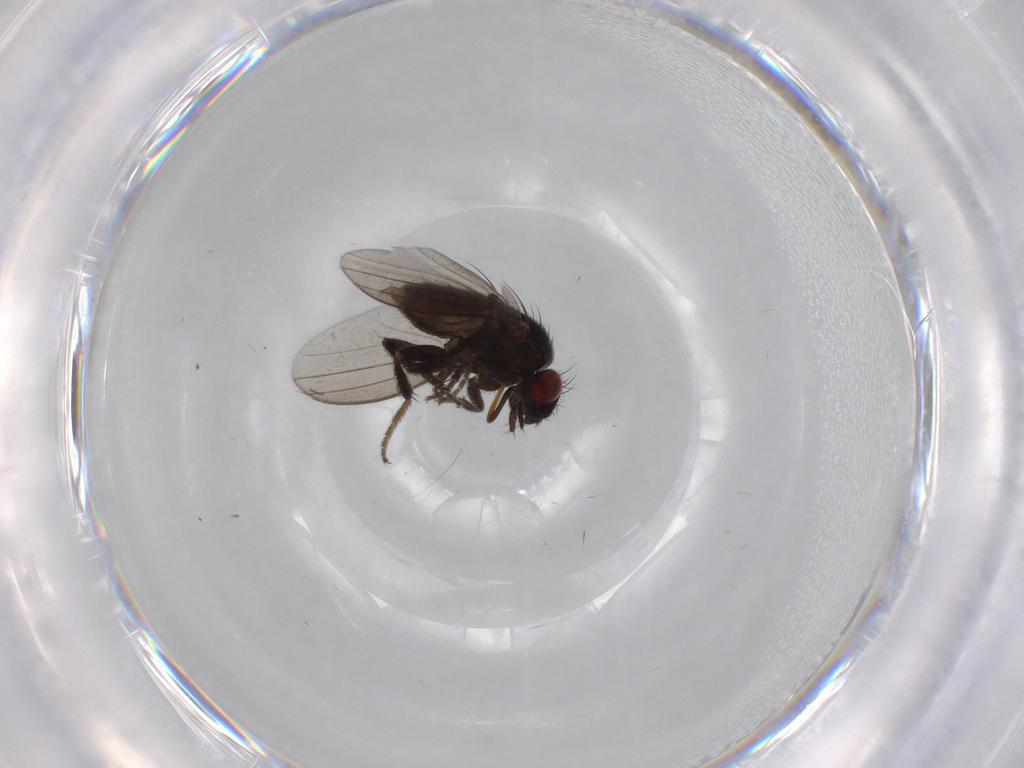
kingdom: Animalia
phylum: Arthropoda
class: Insecta
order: Diptera
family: Milichiidae
